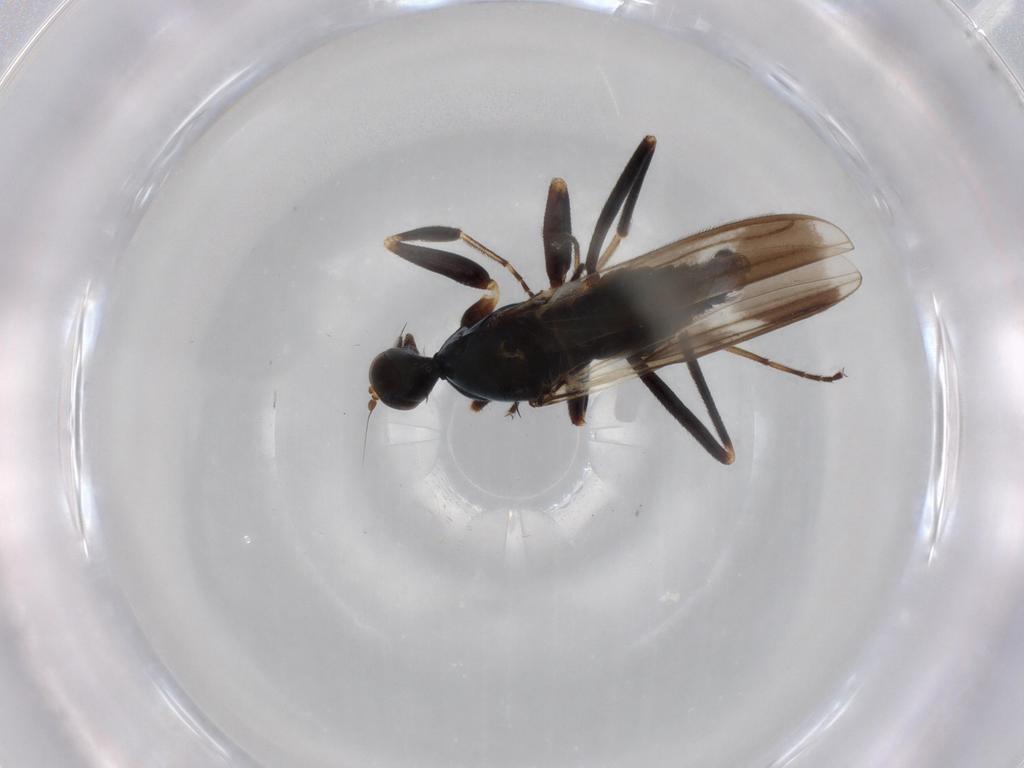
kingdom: Animalia
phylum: Arthropoda
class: Insecta
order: Diptera
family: Hybotidae
